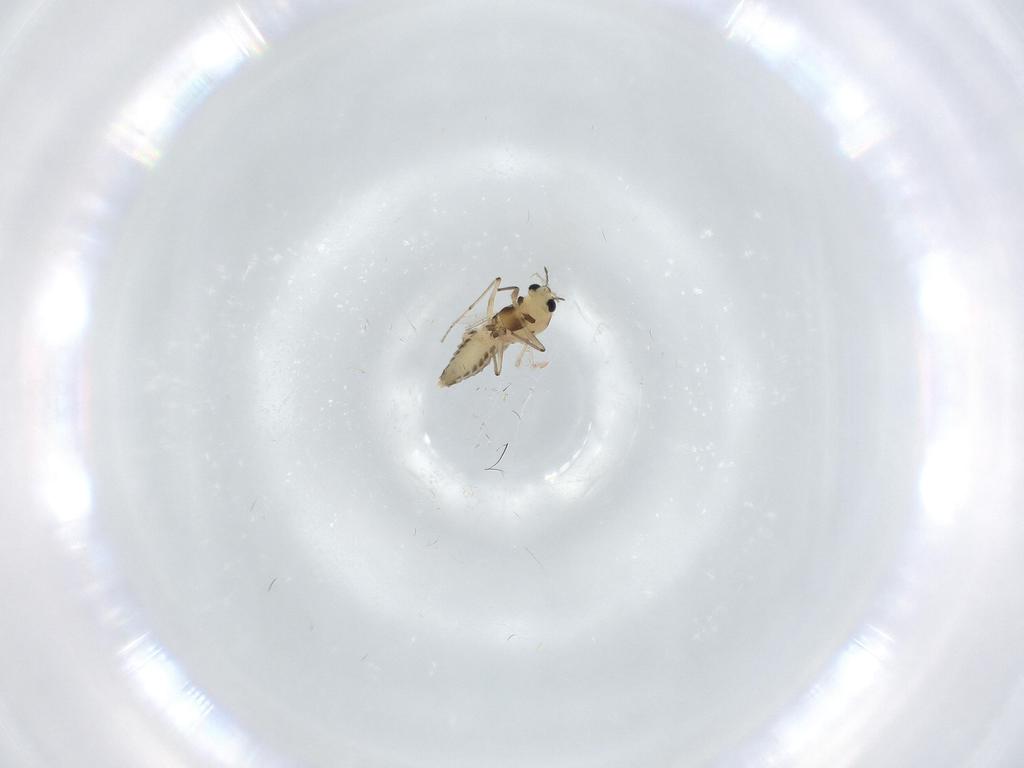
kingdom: Animalia
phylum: Arthropoda
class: Insecta
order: Diptera
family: Chironomidae
